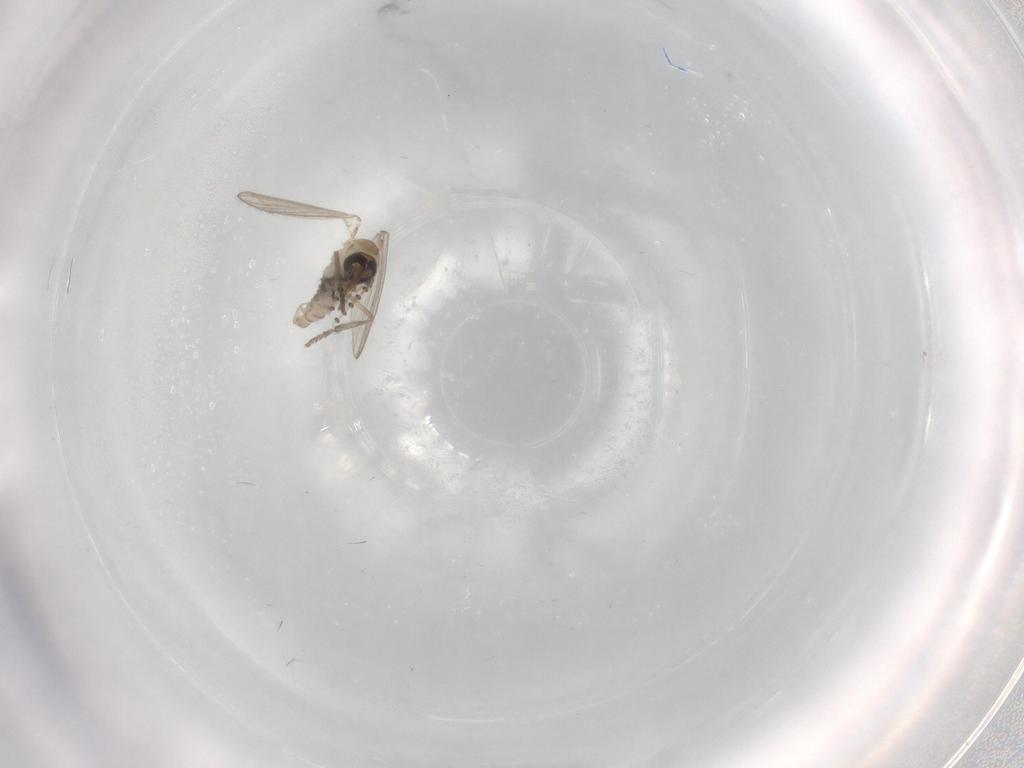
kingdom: Animalia
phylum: Arthropoda
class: Insecta
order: Diptera
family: Psychodidae
